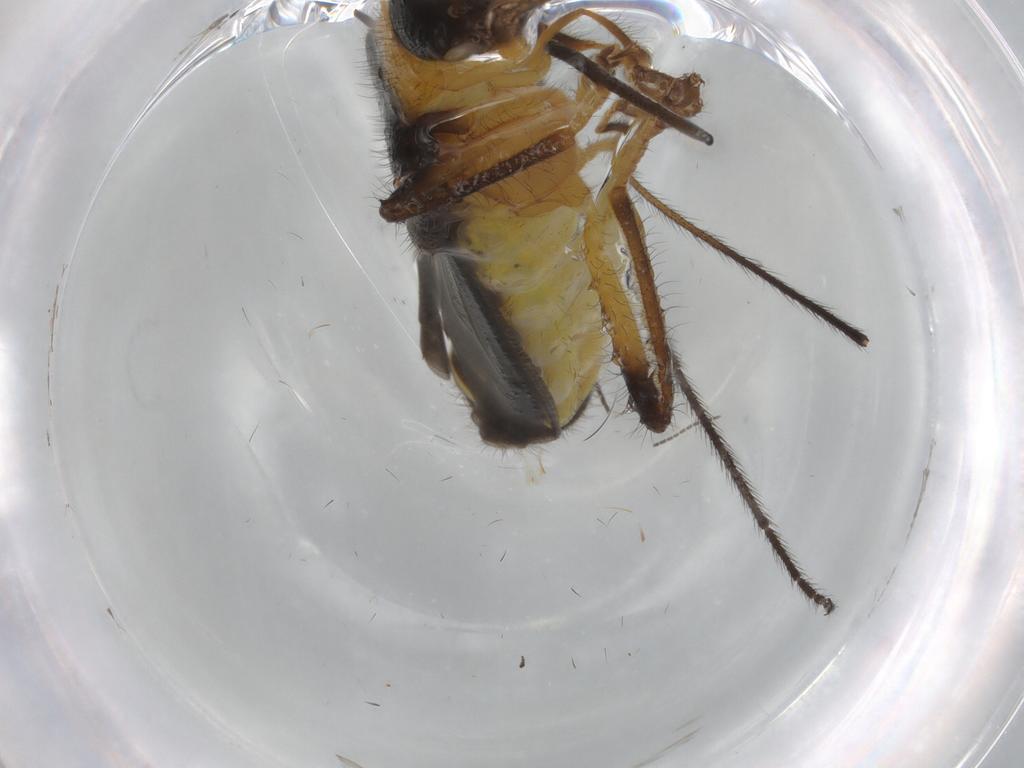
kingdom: Animalia
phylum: Arthropoda
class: Insecta
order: Coleoptera
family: Cantharidae
